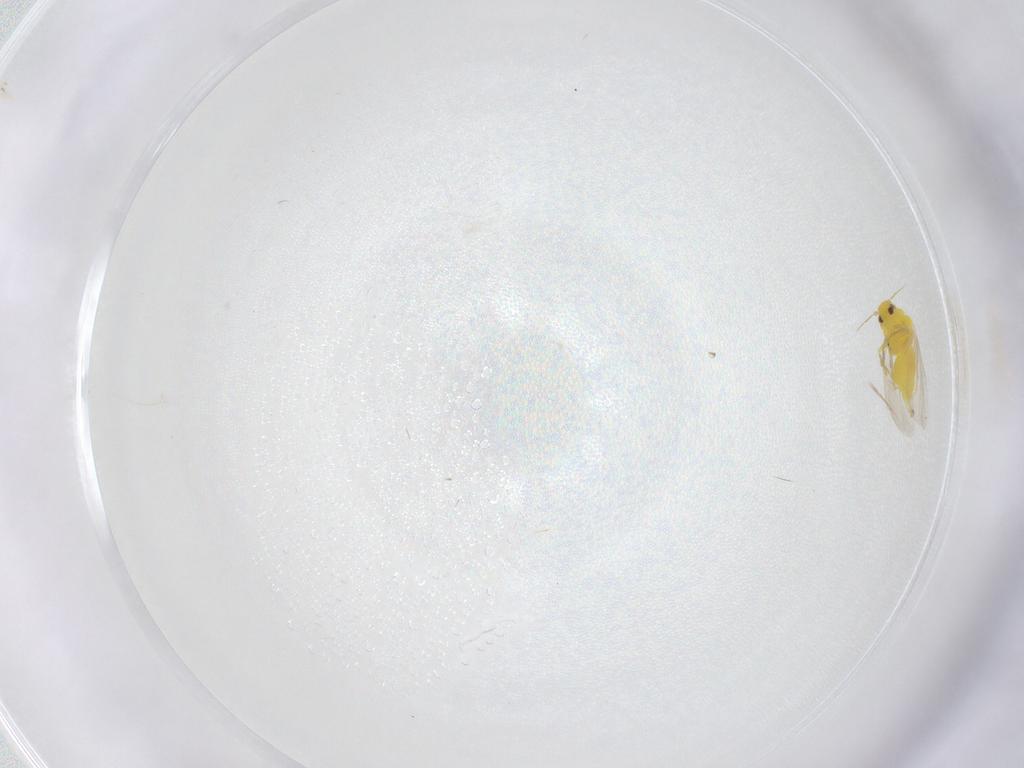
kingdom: Animalia
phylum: Arthropoda
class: Insecta
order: Hemiptera
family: Aleyrodidae
